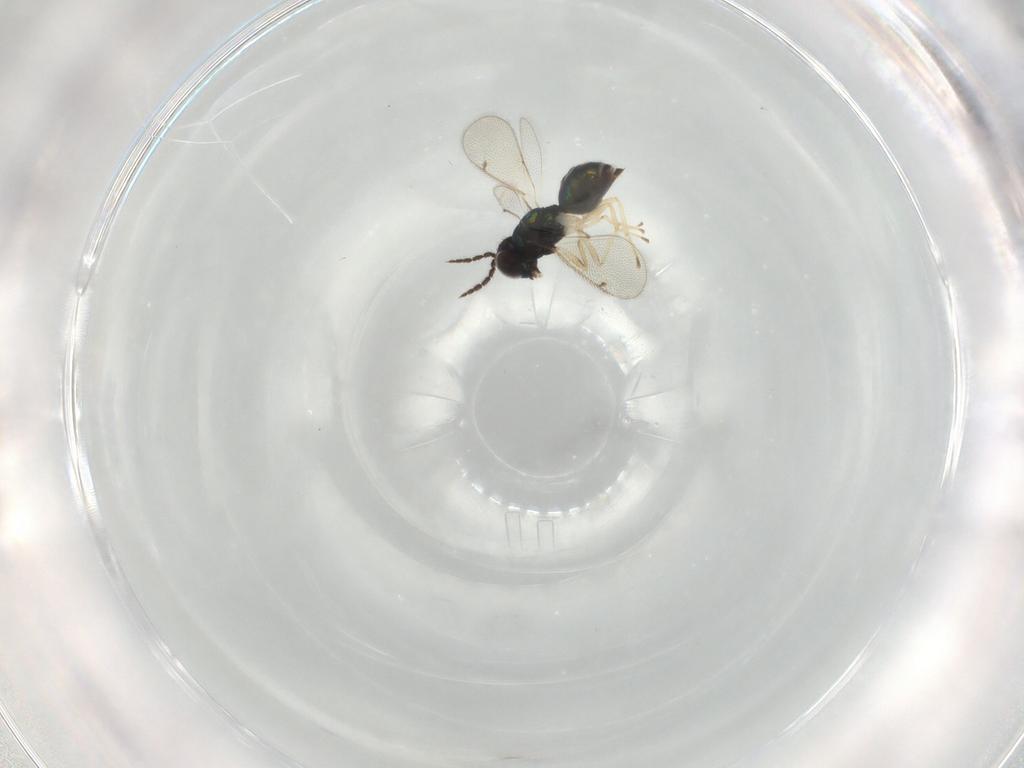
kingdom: Animalia
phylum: Arthropoda
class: Insecta
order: Hymenoptera
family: Eulophidae
